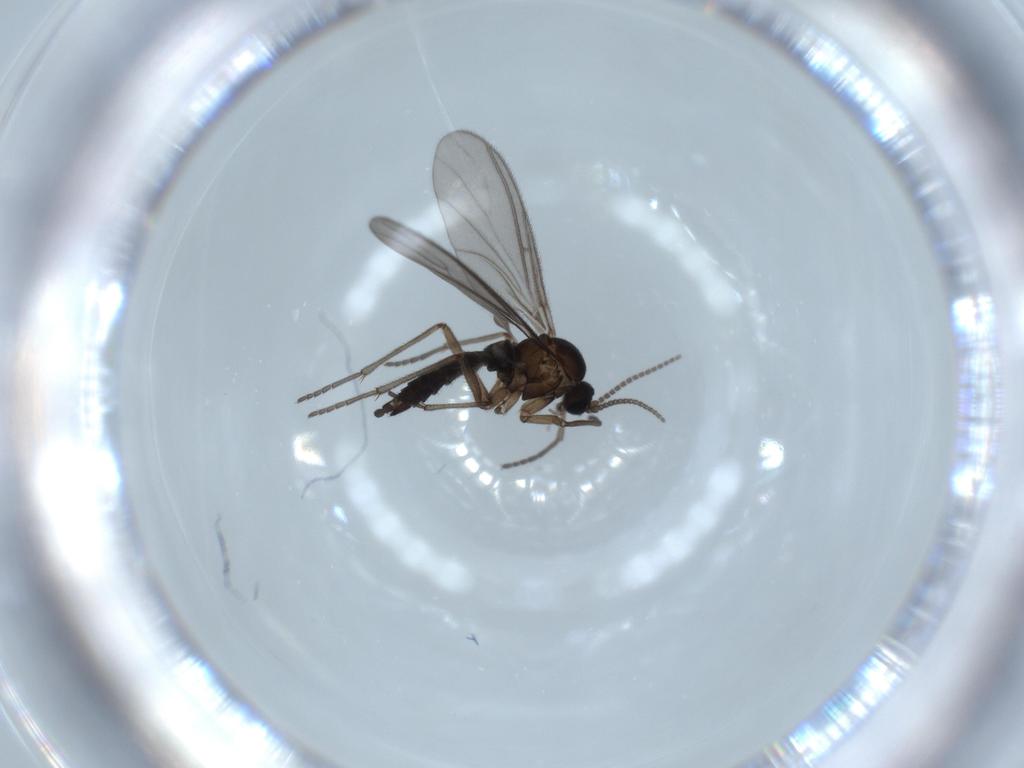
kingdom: Animalia
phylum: Arthropoda
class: Insecta
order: Diptera
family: Sciaridae
